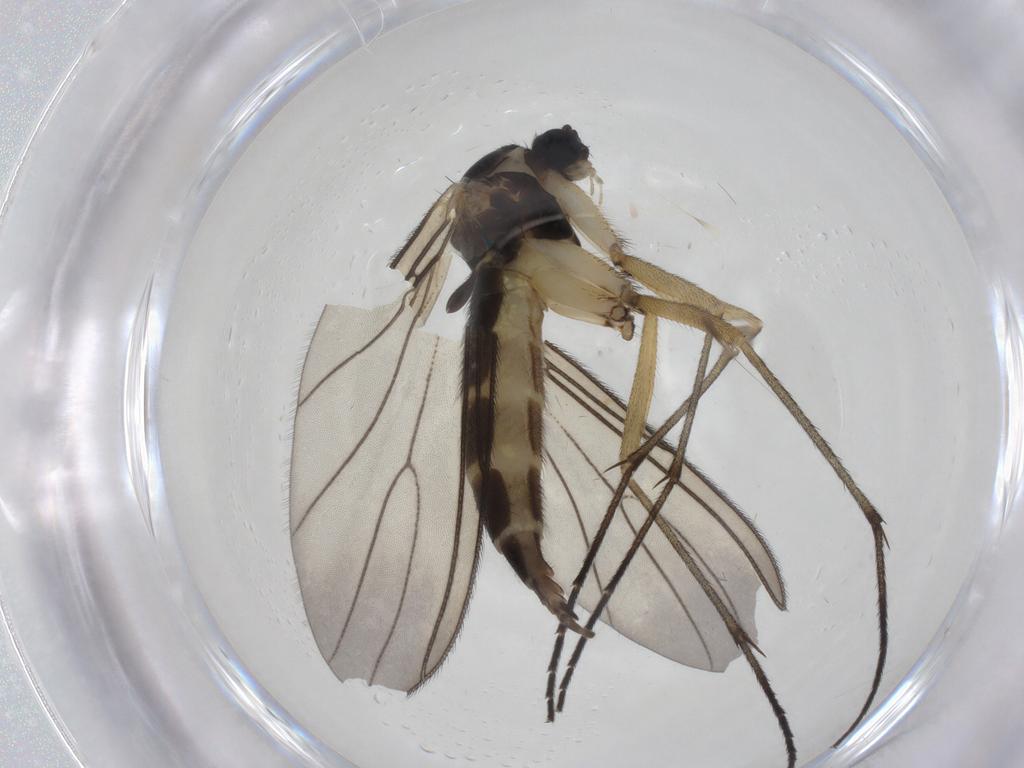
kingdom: Animalia
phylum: Arthropoda
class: Insecta
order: Diptera
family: Sciaridae
